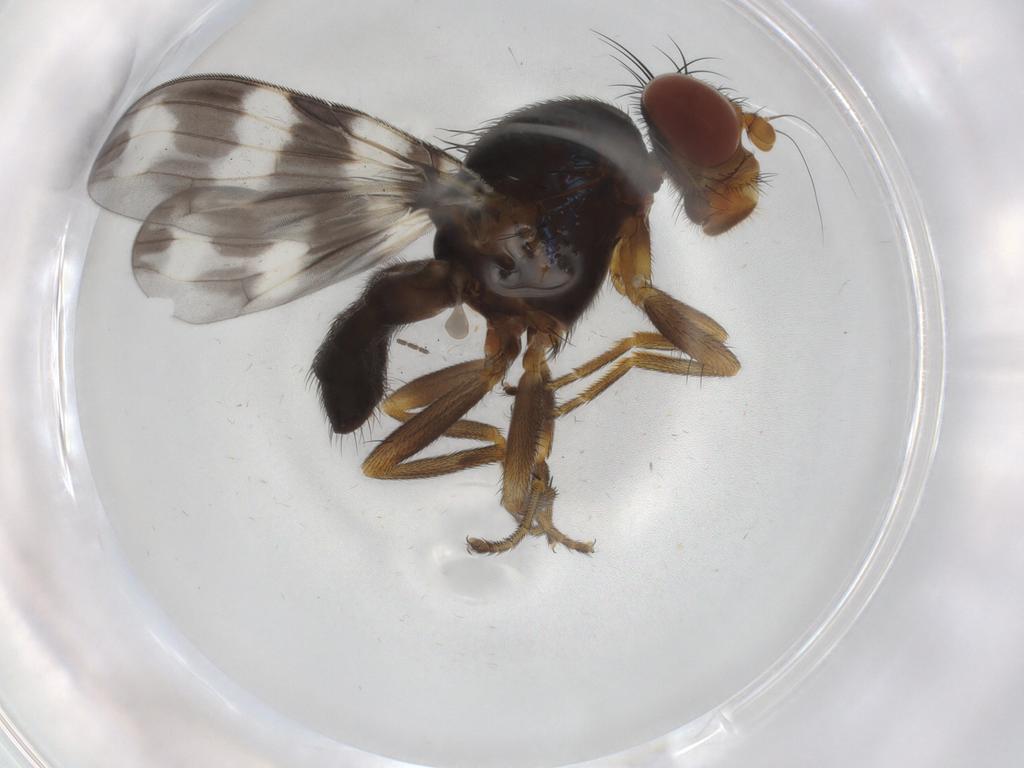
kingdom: Animalia
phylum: Arthropoda
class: Insecta
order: Diptera
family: Chironomidae
